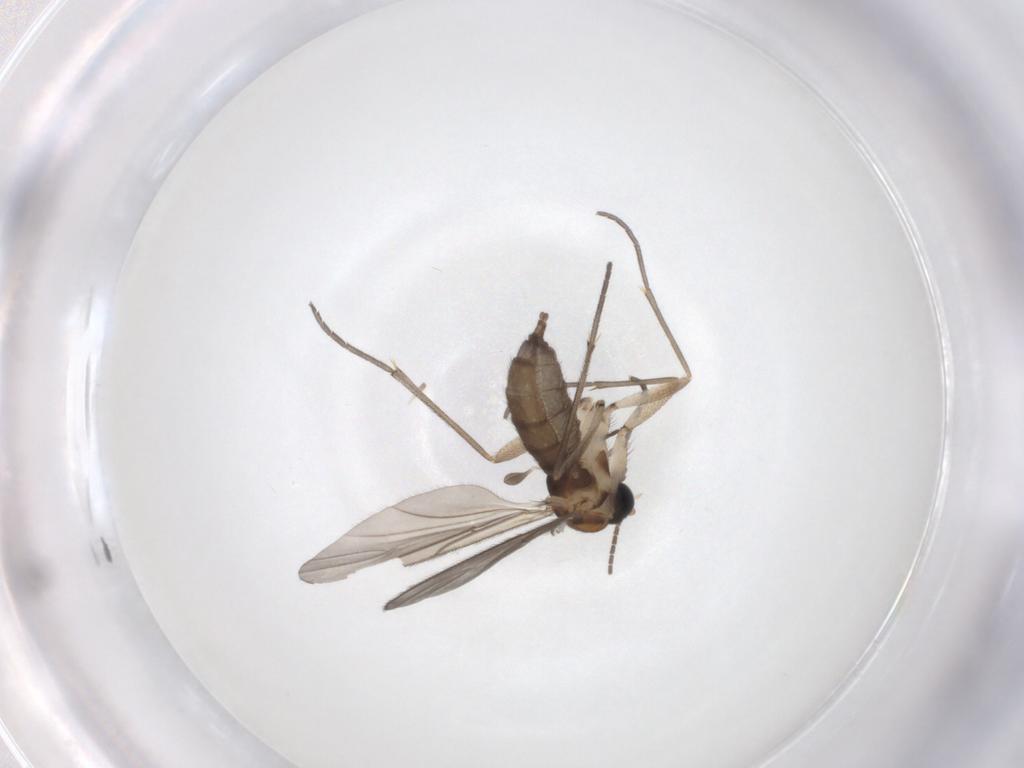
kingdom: Animalia
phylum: Arthropoda
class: Insecta
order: Diptera
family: Sciaridae
